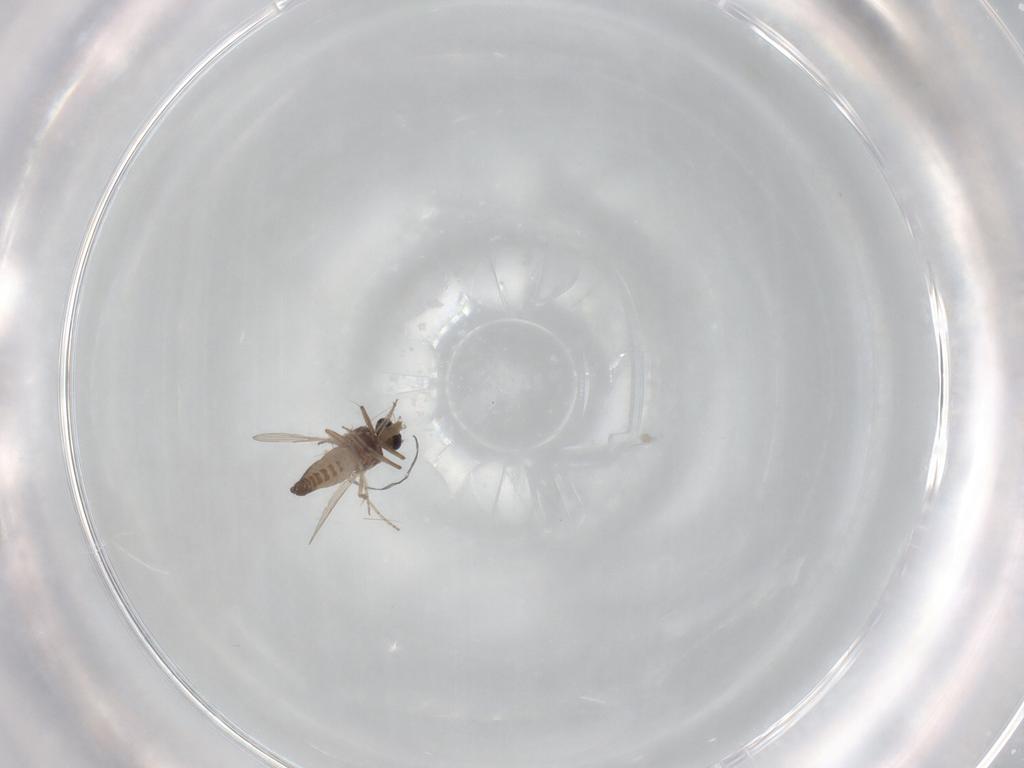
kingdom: Animalia
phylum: Arthropoda
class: Insecta
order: Diptera
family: Ceratopogonidae
